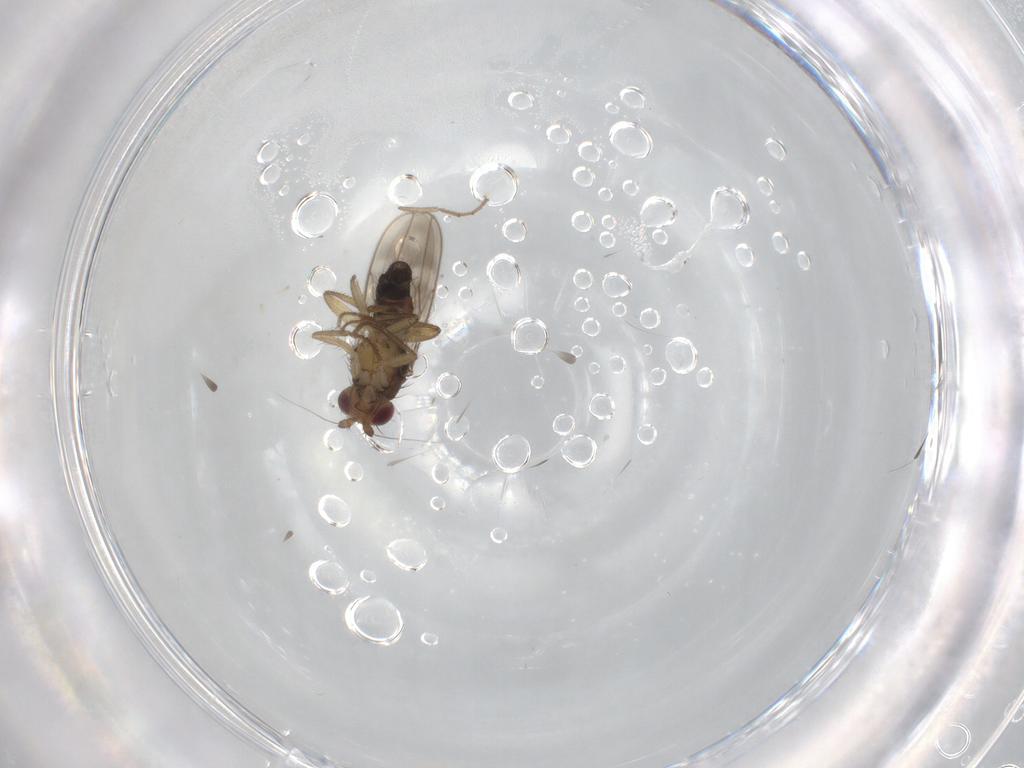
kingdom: Animalia
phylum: Arthropoda
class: Insecta
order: Diptera
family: Sphaeroceridae
